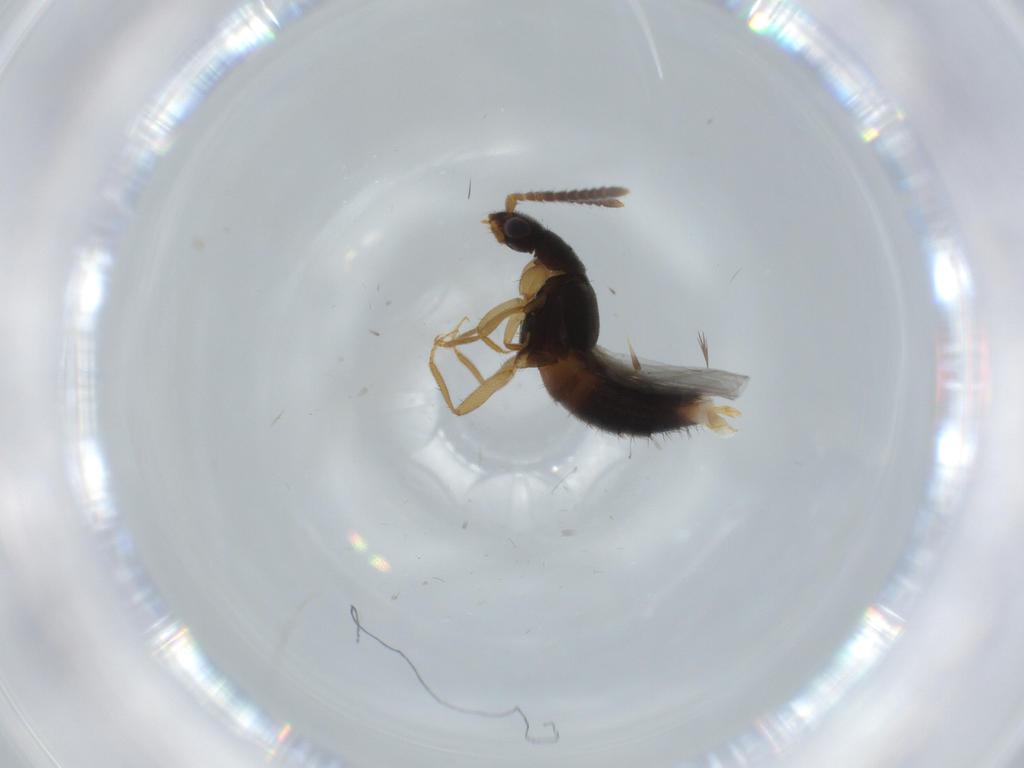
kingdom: Animalia
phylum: Arthropoda
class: Insecta
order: Coleoptera
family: Staphylinidae
